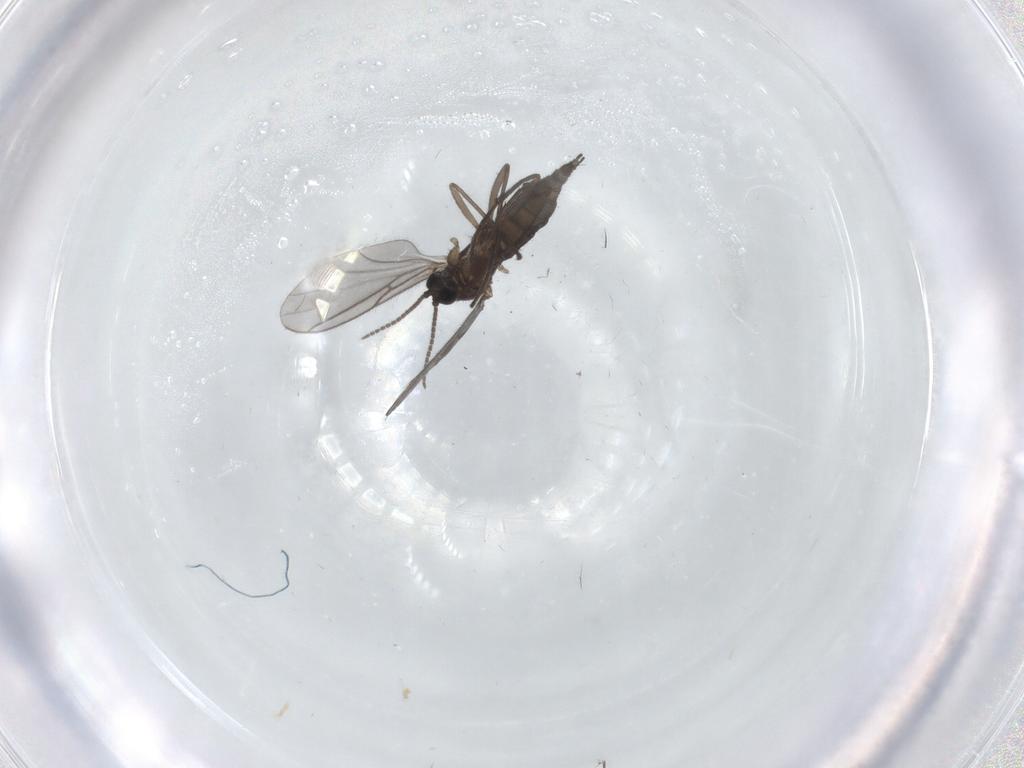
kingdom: Animalia
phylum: Arthropoda
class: Insecta
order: Diptera
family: Sciaridae
